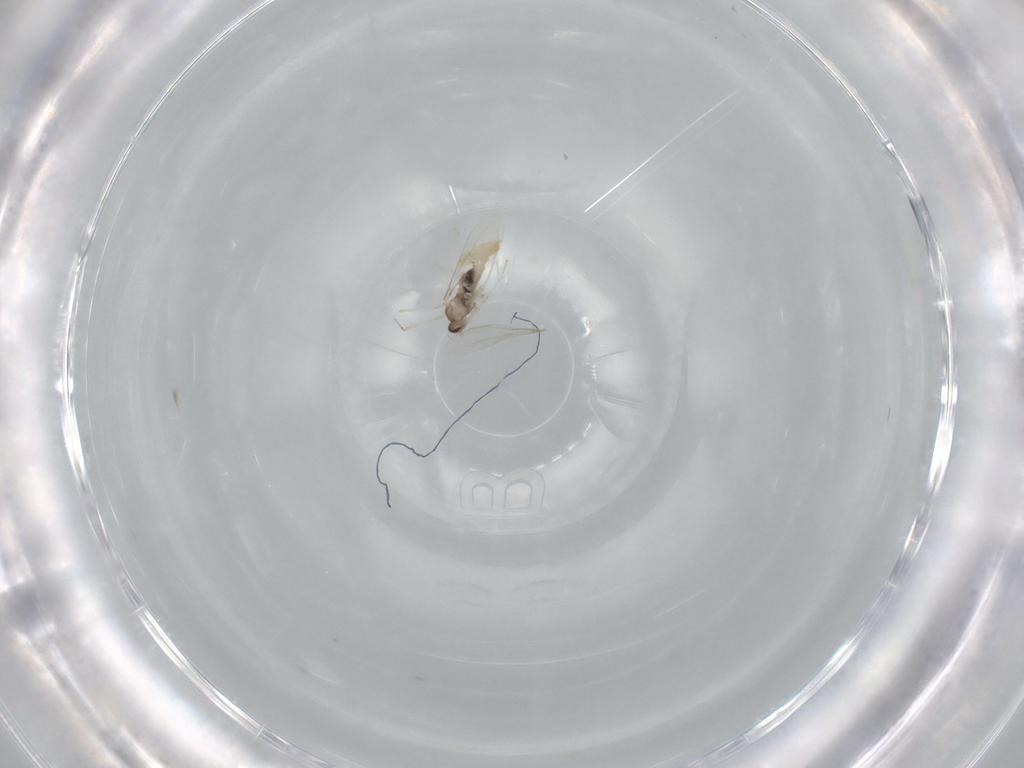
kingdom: Animalia
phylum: Arthropoda
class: Insecta
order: Diptera
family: Cecidomyiidae
